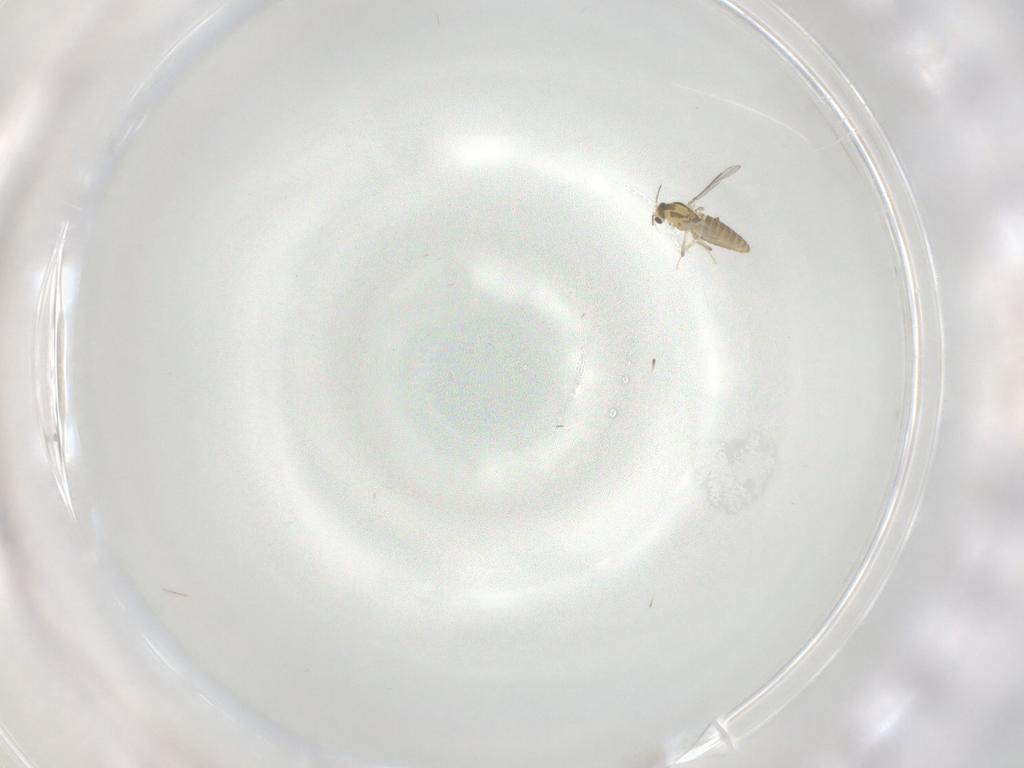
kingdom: Animalia
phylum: Arthropoda
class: Insecta
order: Diptera
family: Chironomidae
